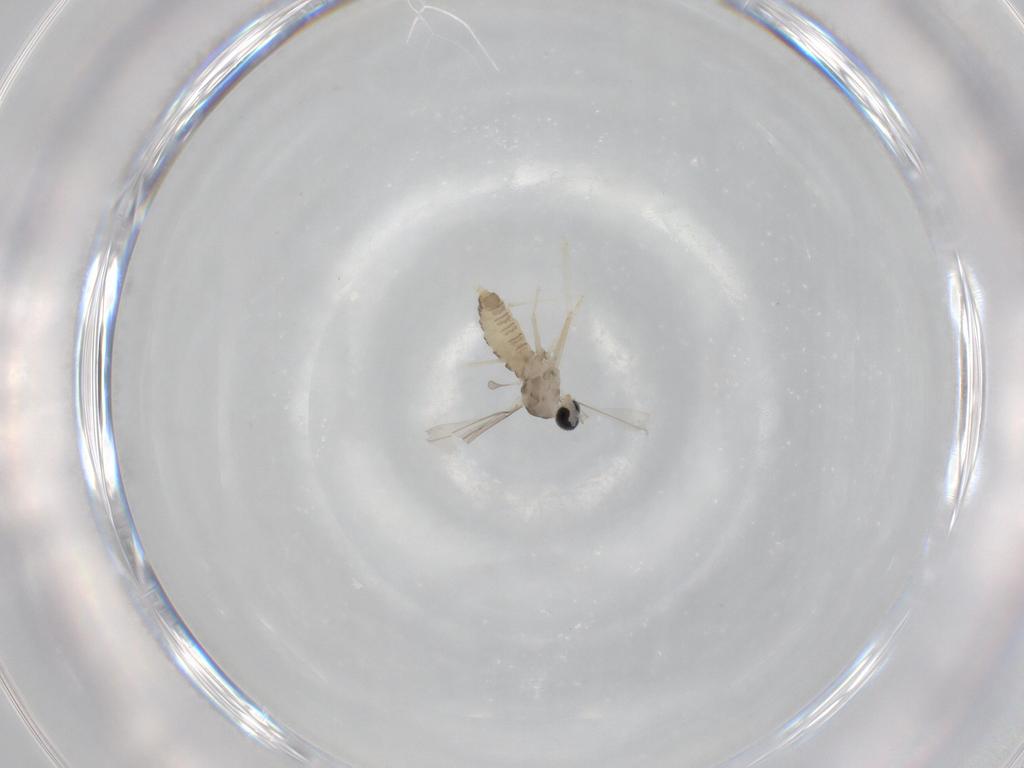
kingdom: Animalia
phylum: Arthropoda
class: Insecta
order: Diptera
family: Cecidomyiidae
